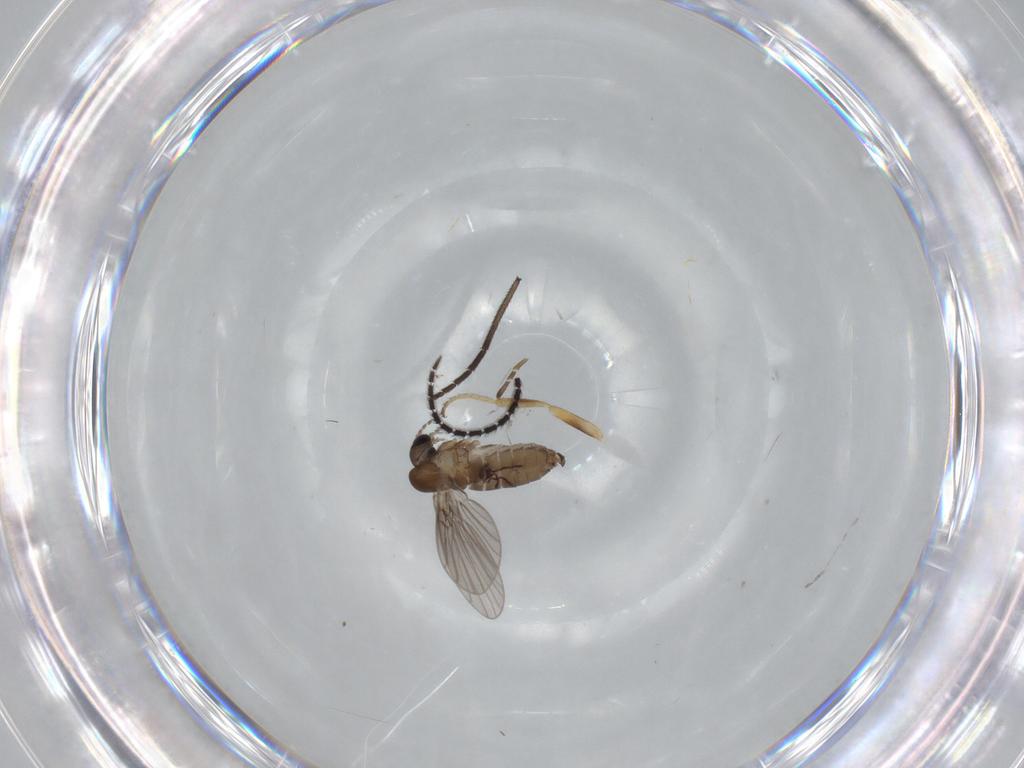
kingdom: Animalia
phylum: Arthropoda
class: Insecta
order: Diptera
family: Sciaridae
